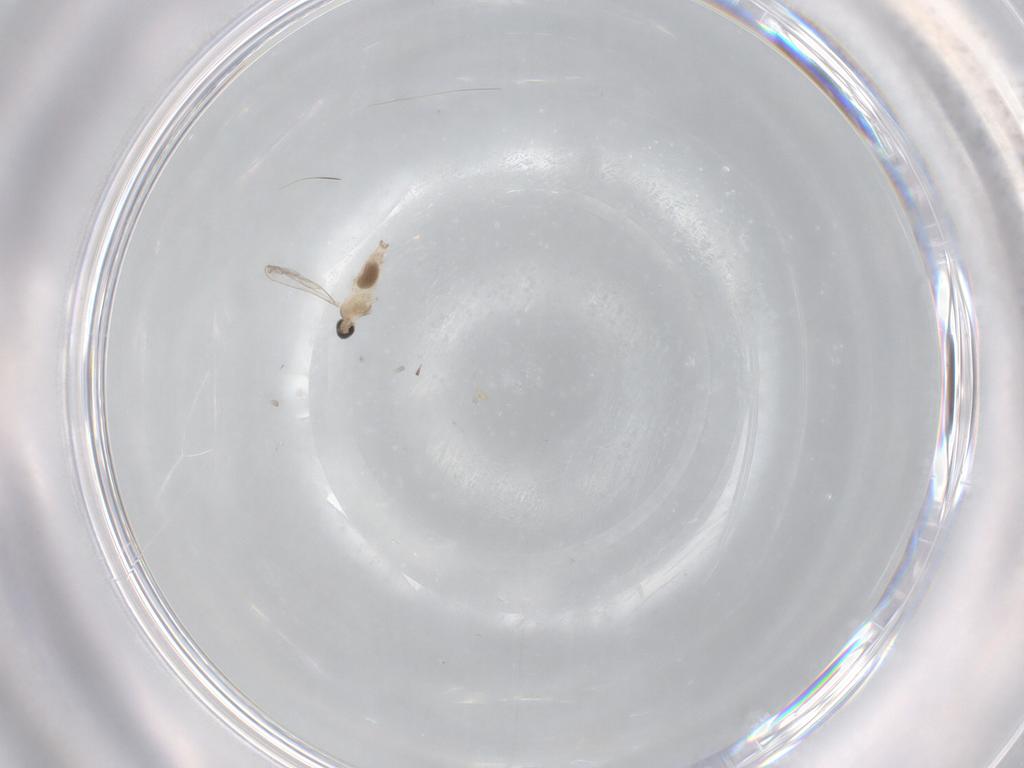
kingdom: Animalia
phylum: Arthropoda
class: Insecta
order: Diptera
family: Cecidomyiidae
